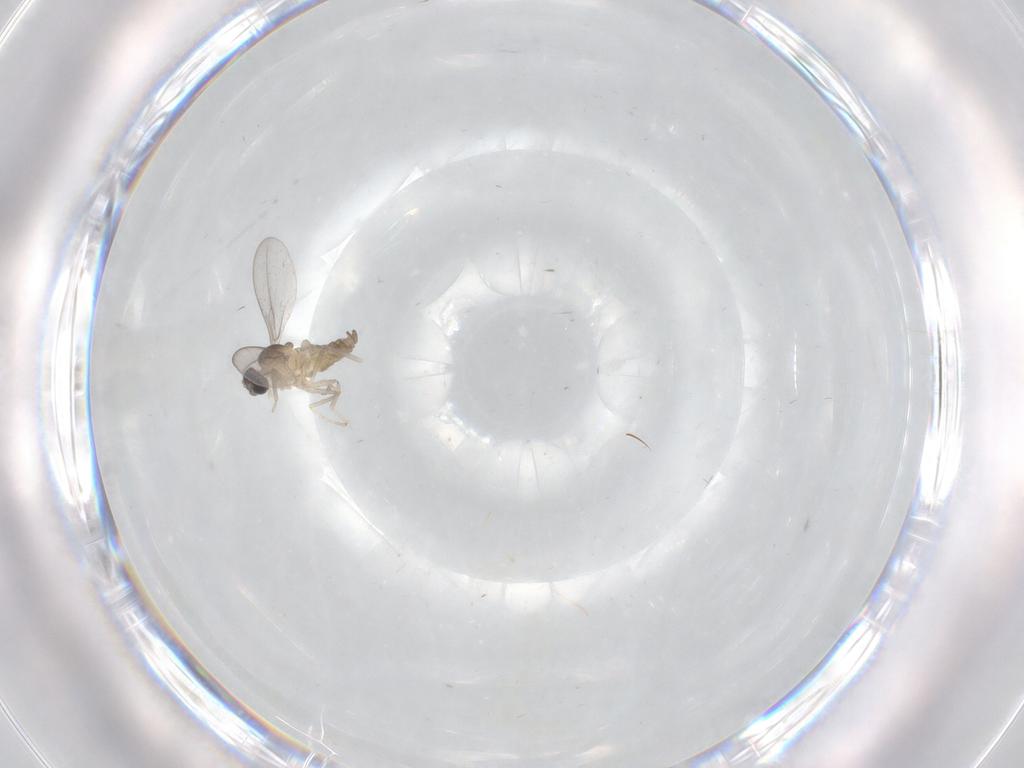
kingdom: Animalia
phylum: Arthropoda
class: Insecta
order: Diptera
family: Cecidomyiidae
